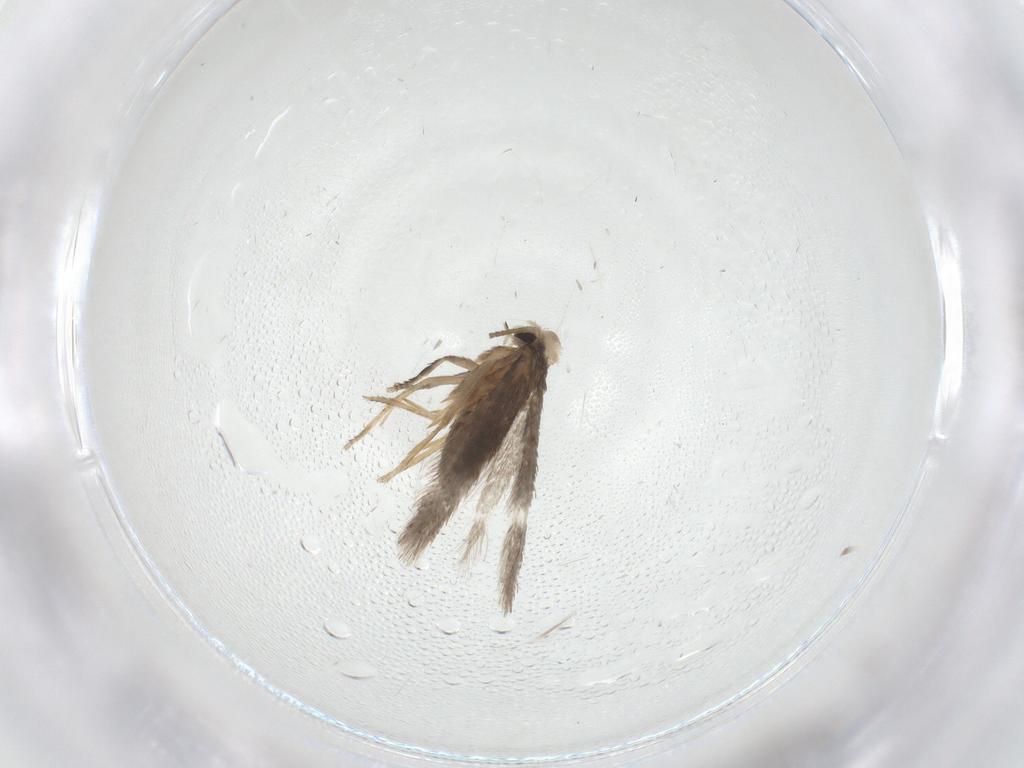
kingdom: Animalia
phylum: Arthropoda
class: Insecta
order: Lepidoptera
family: Nepticulidae
